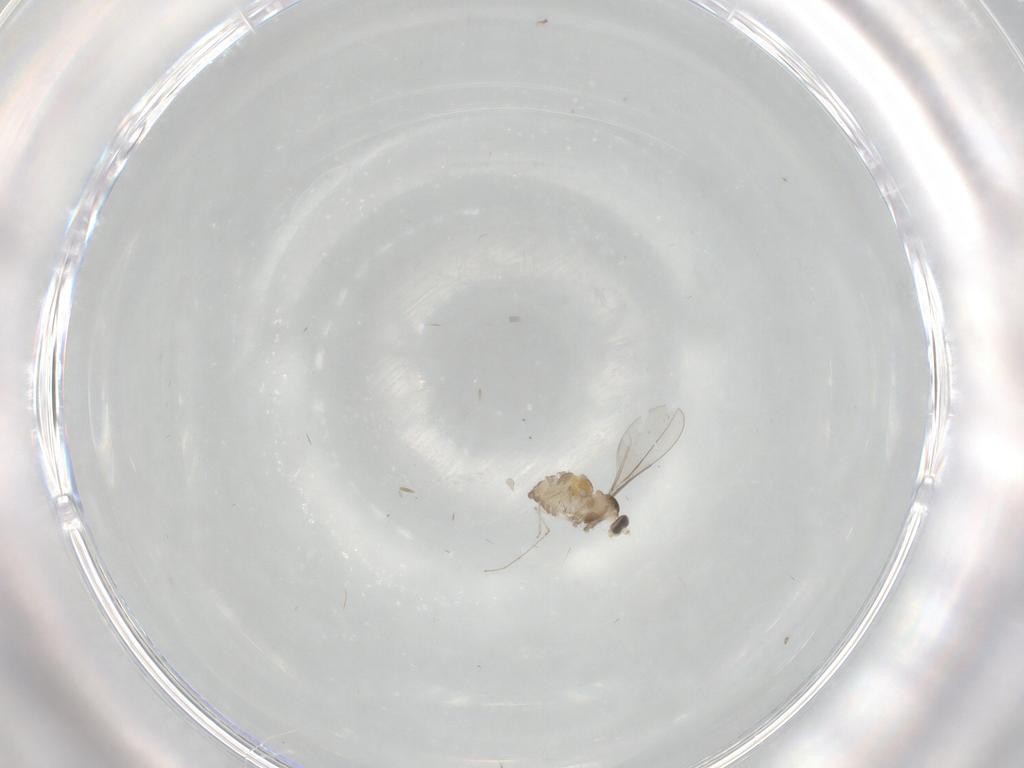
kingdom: Animalia
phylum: Arthropoda
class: Insecta
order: Diptera
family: Cecidomyiidae
